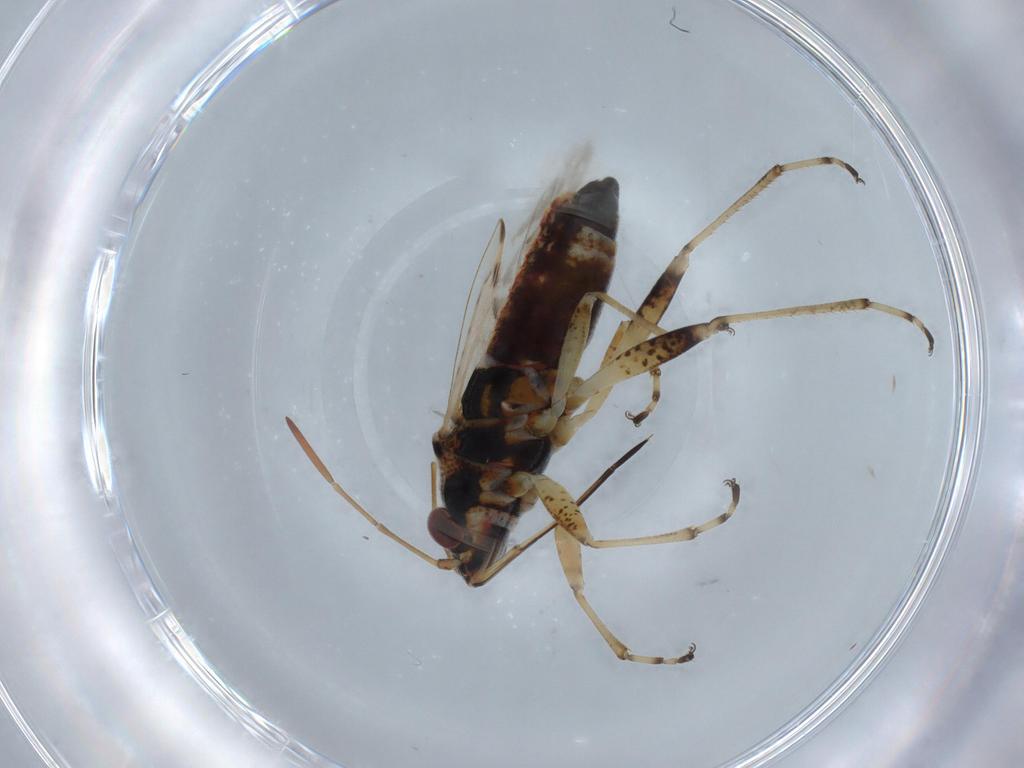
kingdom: Animalia
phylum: Arthropoda
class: Insecta
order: Hemiptera
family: Lygaeidae
